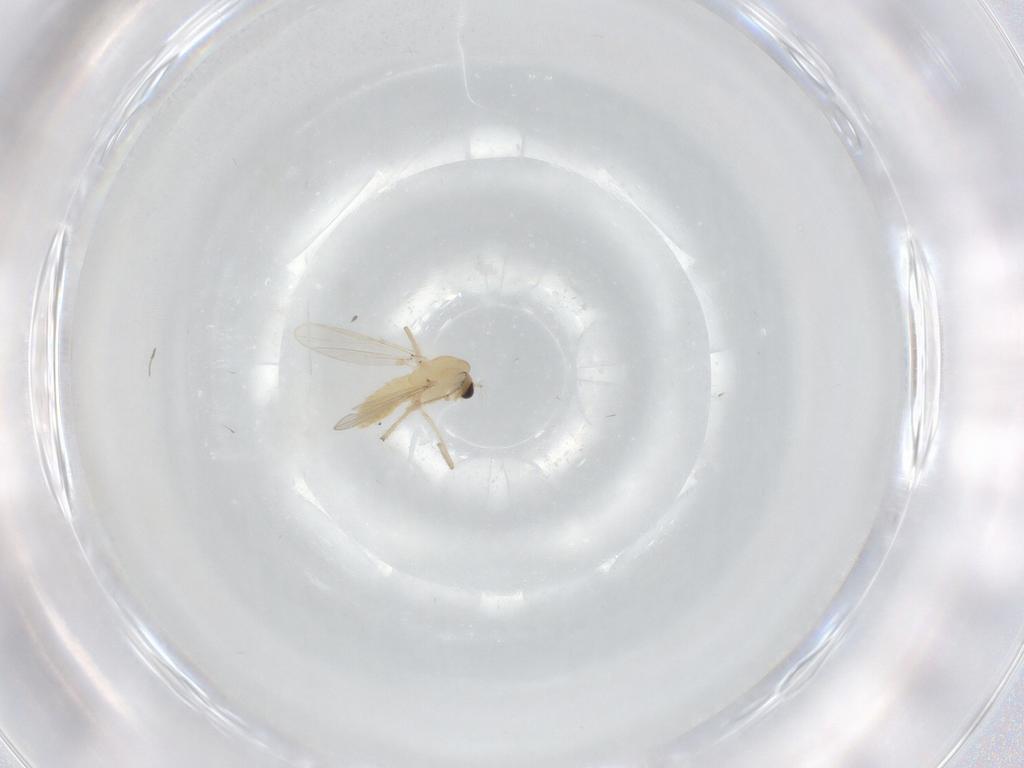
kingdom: Animalia
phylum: Arthropoda
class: Insecta
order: Diptera
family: Chironomidae
